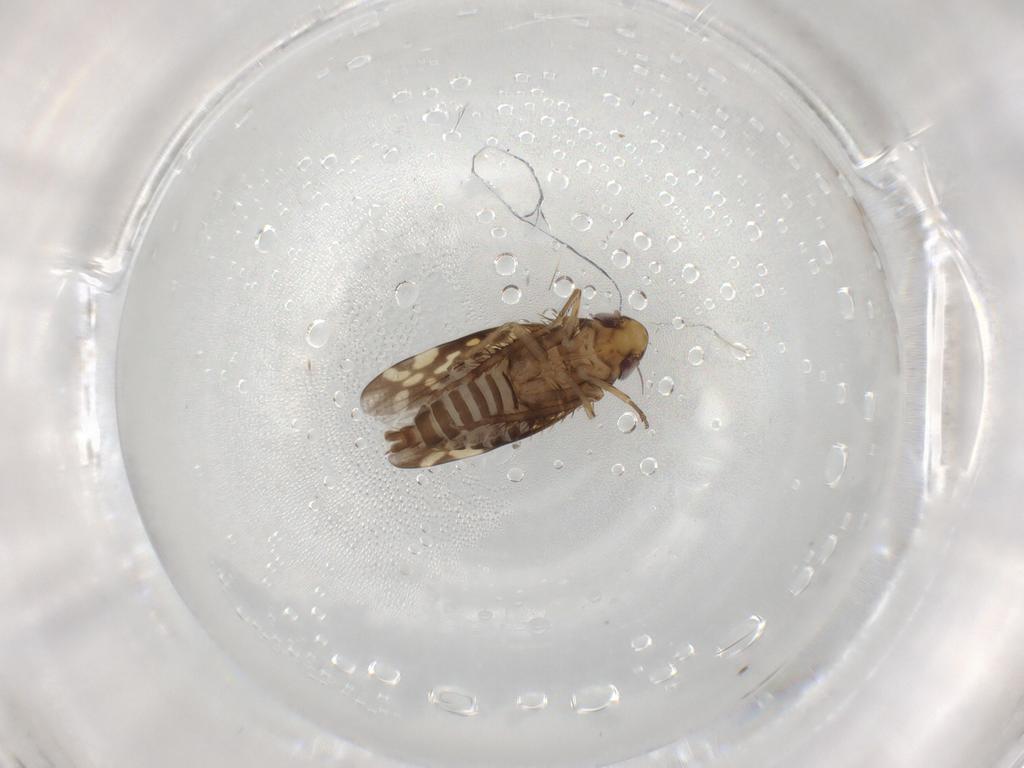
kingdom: Animalia
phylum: Arthropoda
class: Insecta
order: Hemiptera
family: Cicadellidae
